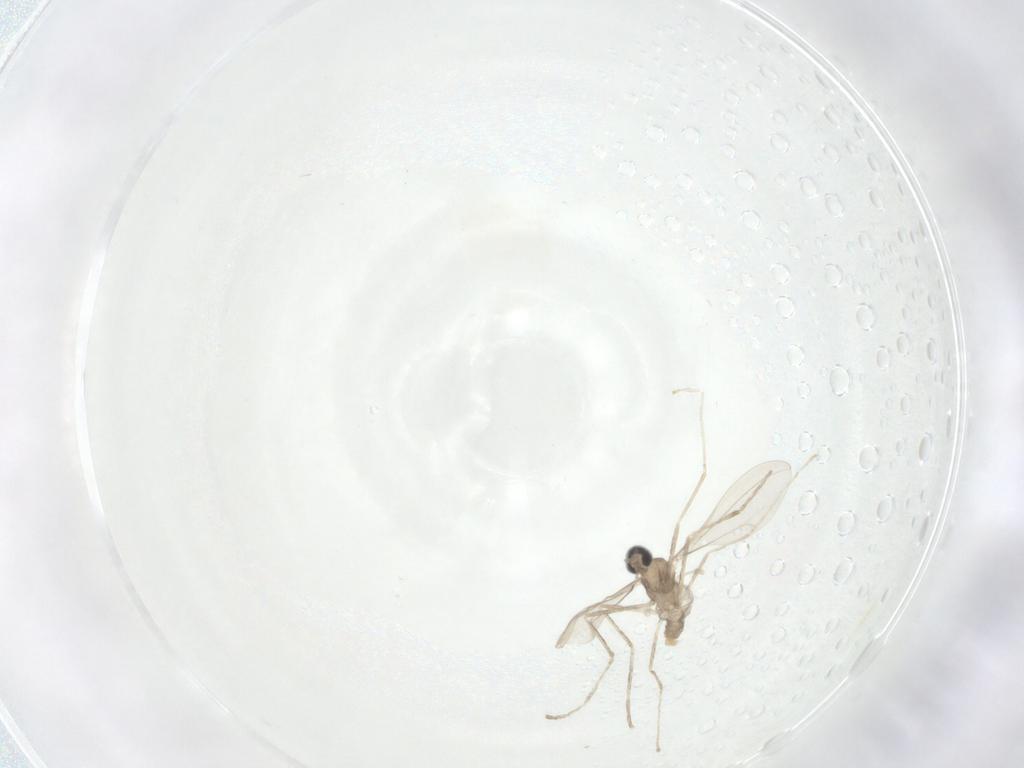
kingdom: Animalia
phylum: Arthropoda
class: Insecta
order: Diptera
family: Cecidomyiidae
